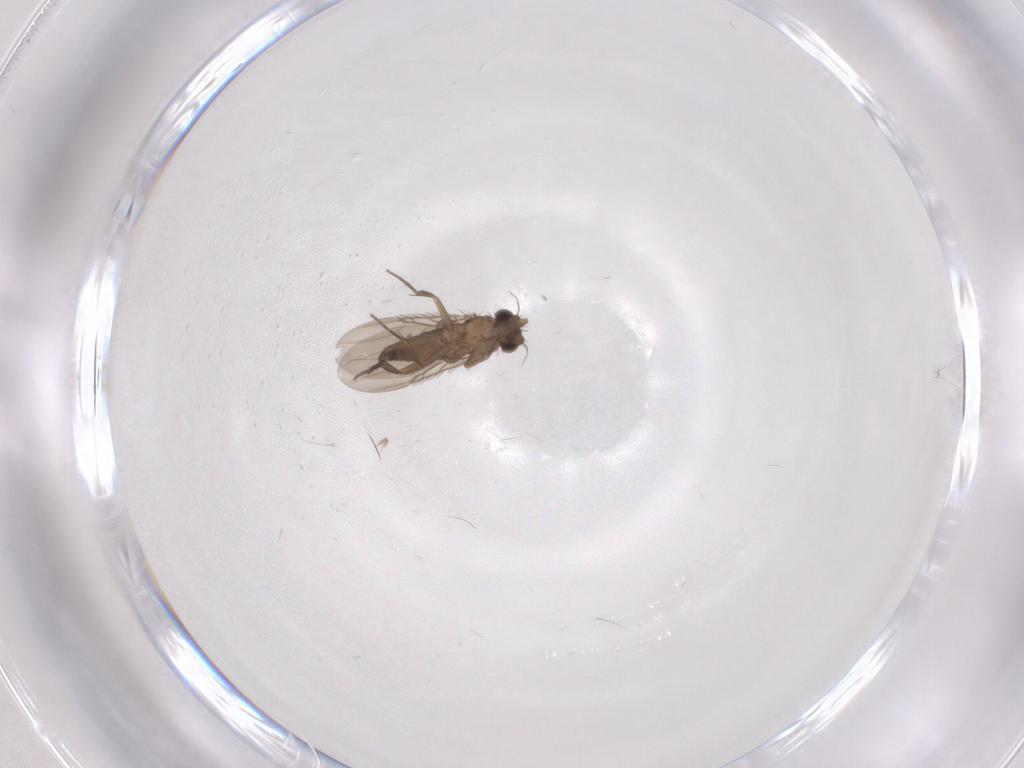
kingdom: Animalia
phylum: Arthropoda
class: Insecta
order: Diptera
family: Phoridae
